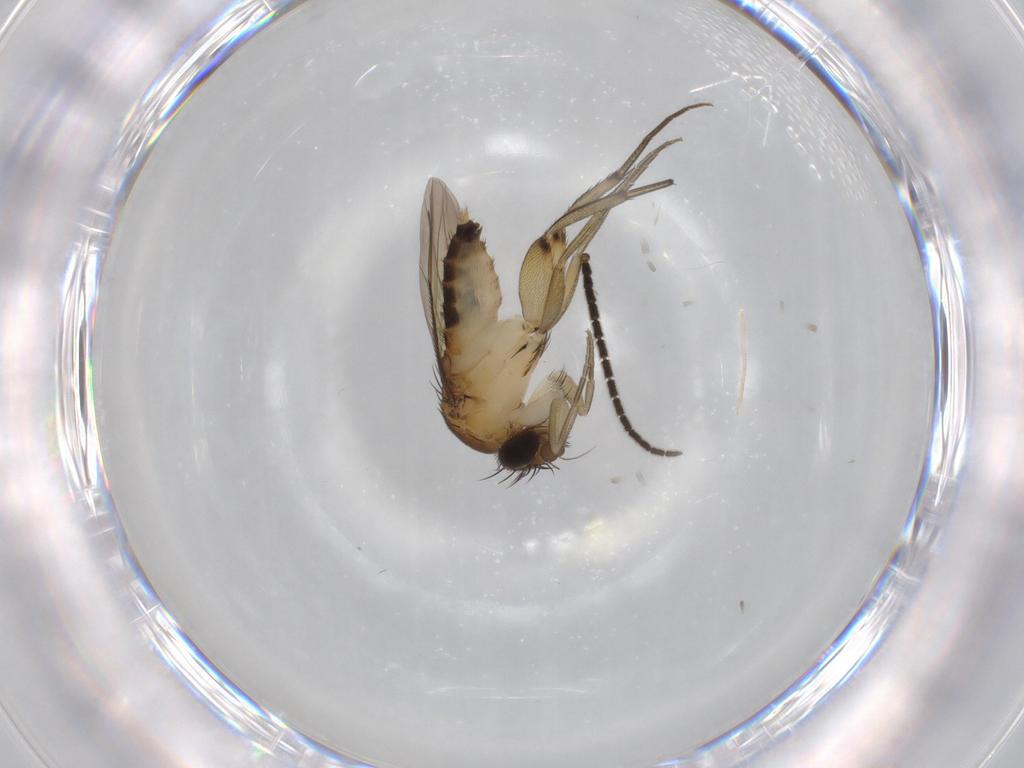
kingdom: Animalia
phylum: Arthropoda
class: Insecta
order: Diptera
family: Phoridae
